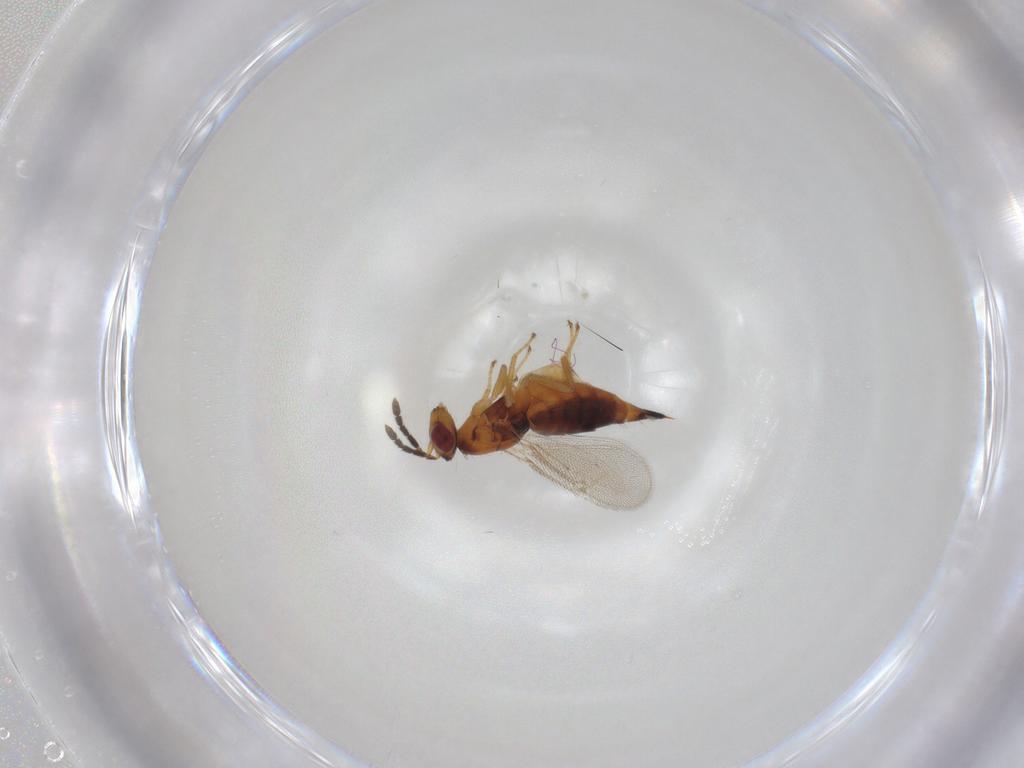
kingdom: Animalia
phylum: Arthropoda
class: Insecta
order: Hymenoptera
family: Eulophidae
